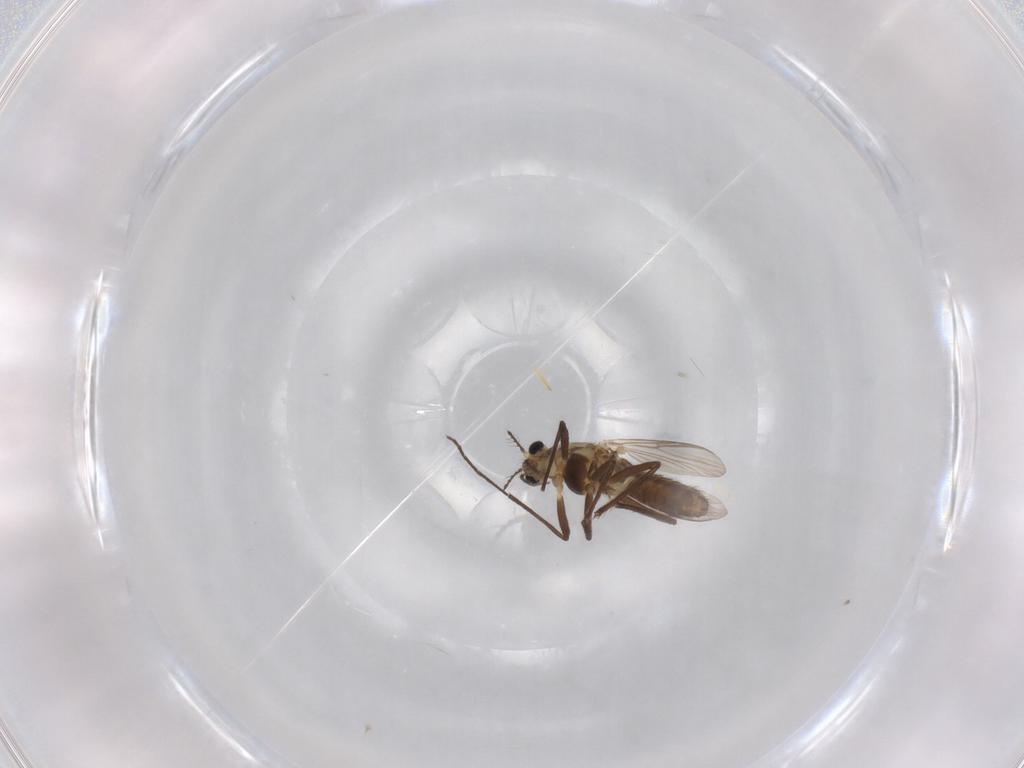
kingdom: Animalia
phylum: Arthropoda
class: Insecta
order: Diptera
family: Chironomidae
